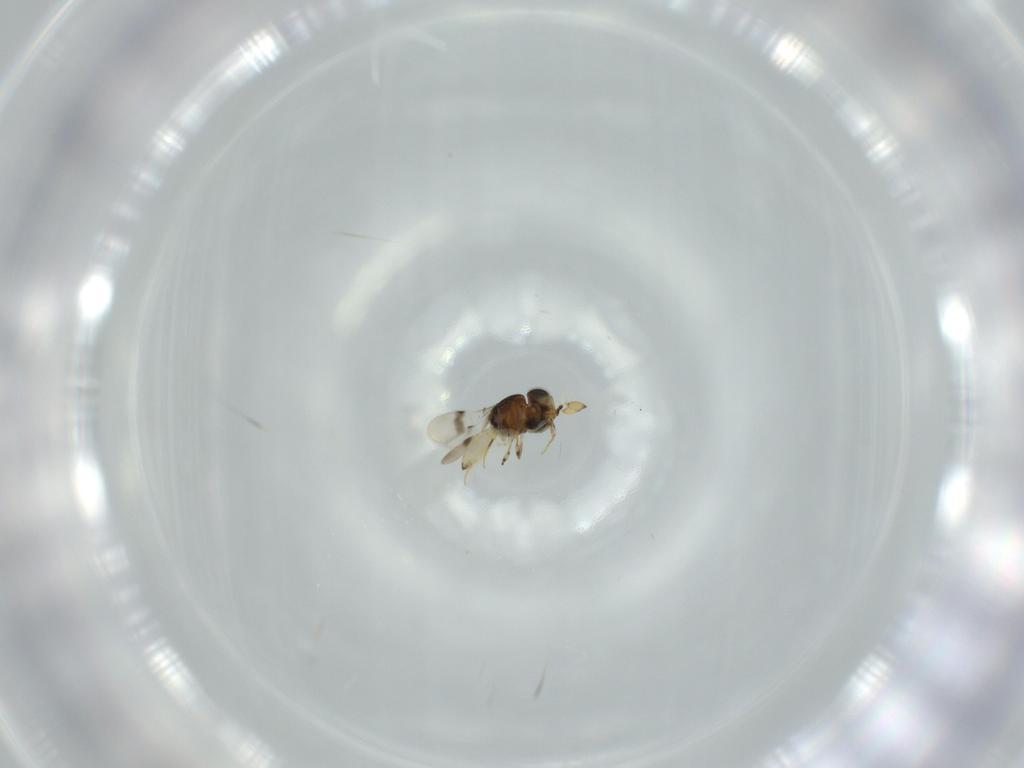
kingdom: Animalia
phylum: Arthropoda
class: Insecta
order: Hymenoptera
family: Scelionidae
